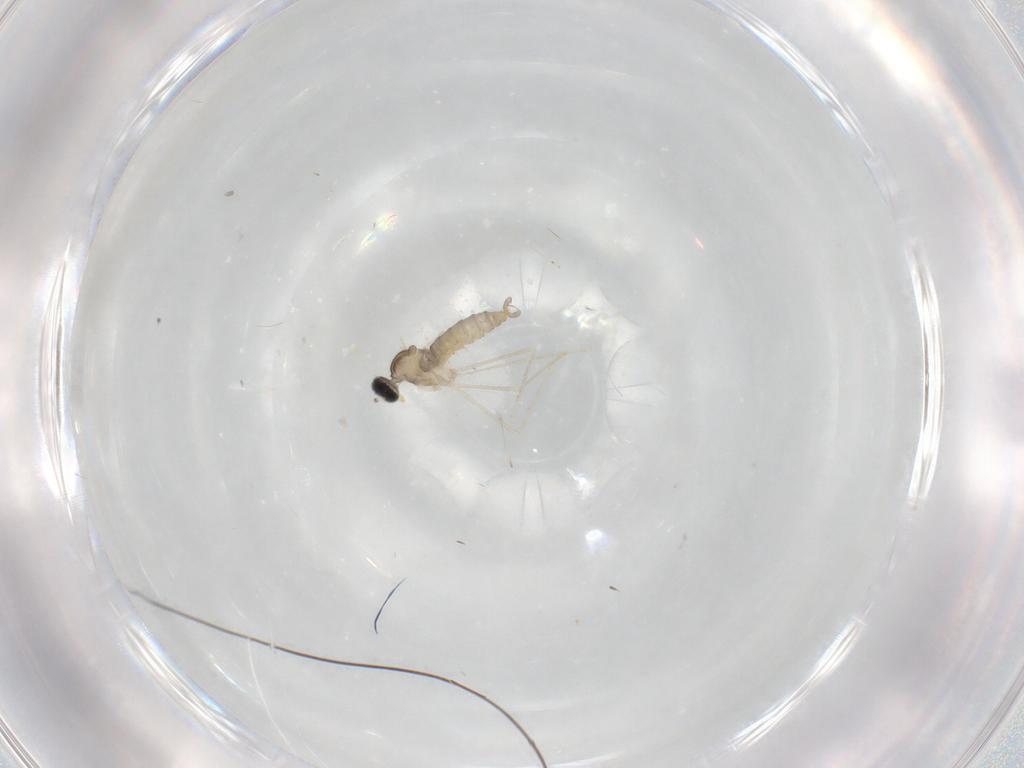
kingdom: Animalia
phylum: Arthropoda
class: Insecta
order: Diptera
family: Cecidomyiidae
